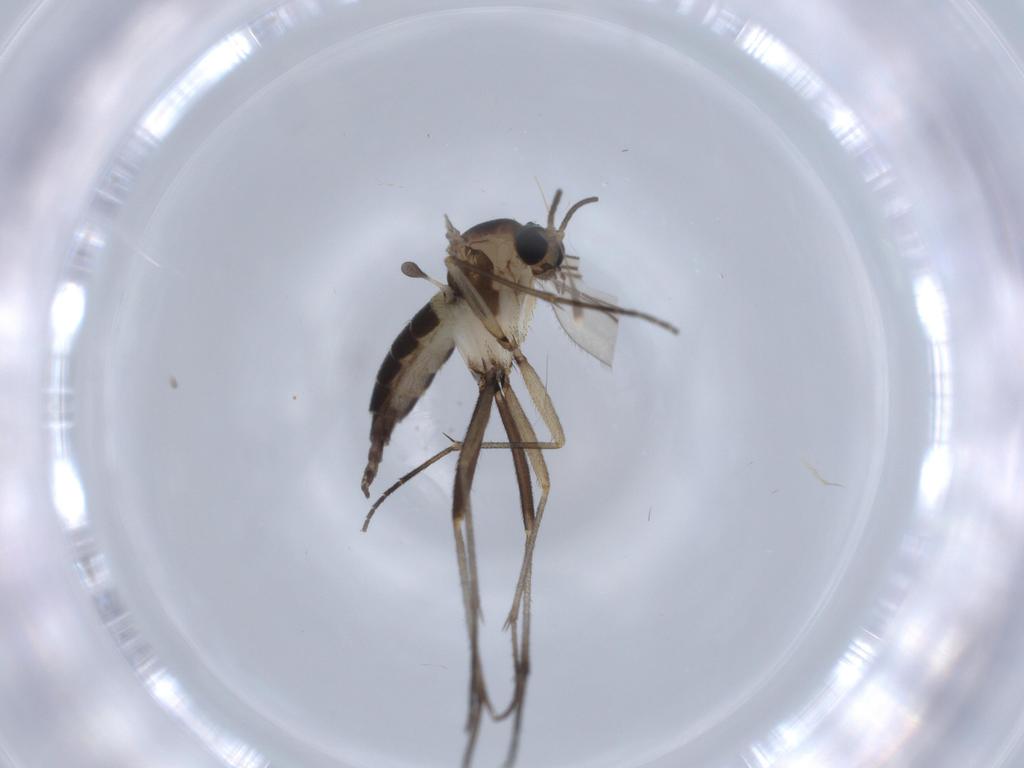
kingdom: Animalia
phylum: Arthropoda
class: Insecta
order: Diptera
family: Sciaridae
